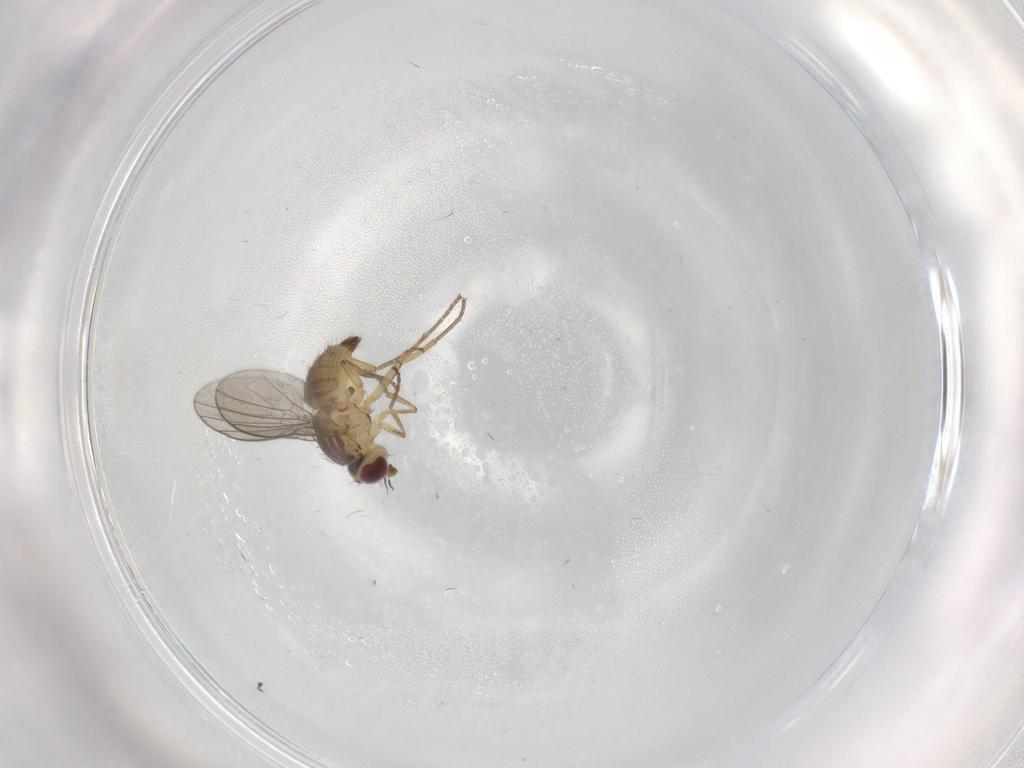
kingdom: Animalia
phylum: Arthropoda
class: Insecta
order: Diptera
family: Agromyzidae
